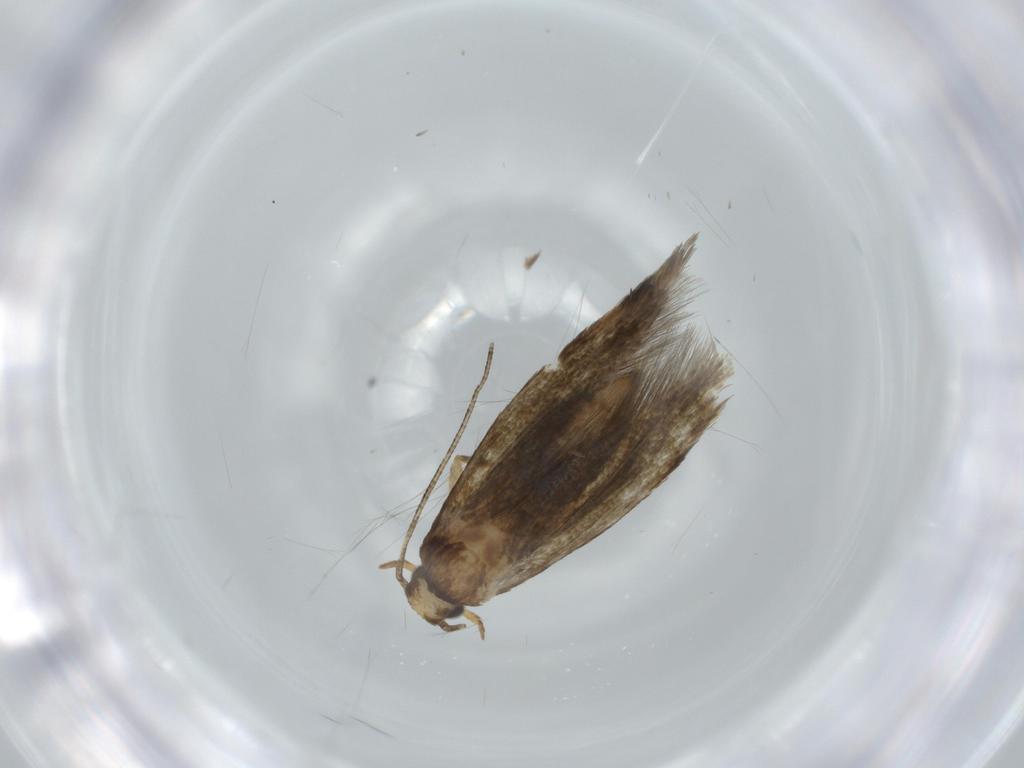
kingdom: Animalia
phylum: Arthropoda
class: Insecta
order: Lepidoptera
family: Tineidae
